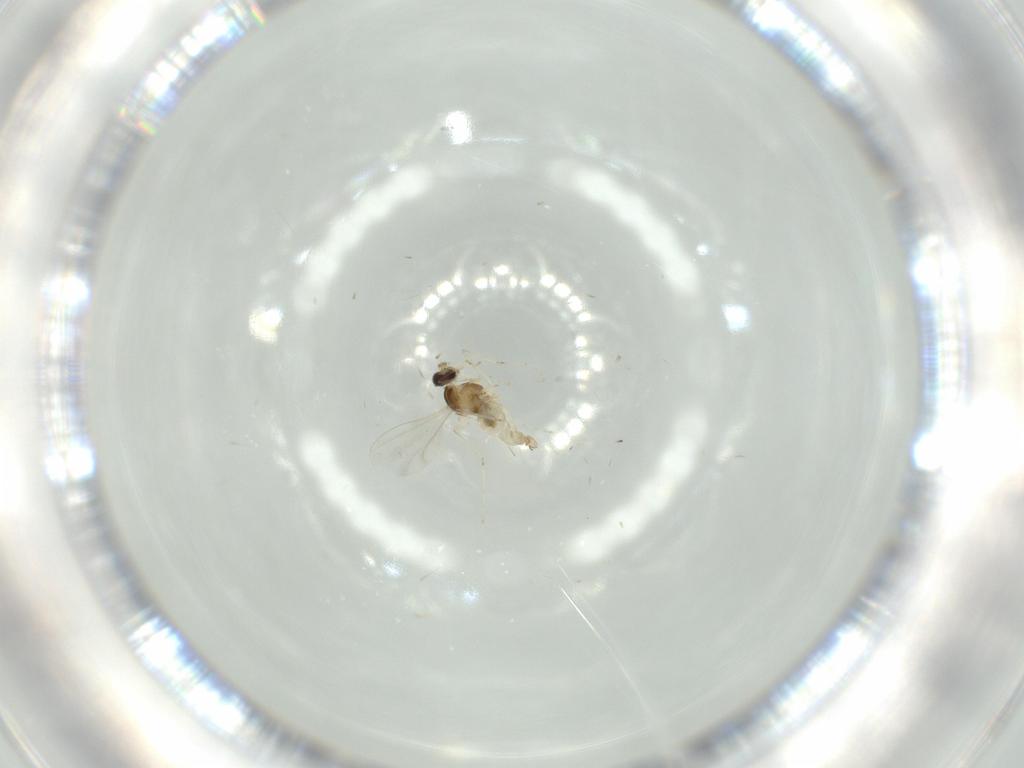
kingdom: Animalia
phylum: Arthropoda
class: Insecta
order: Diptera
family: Cecidomyiidae
